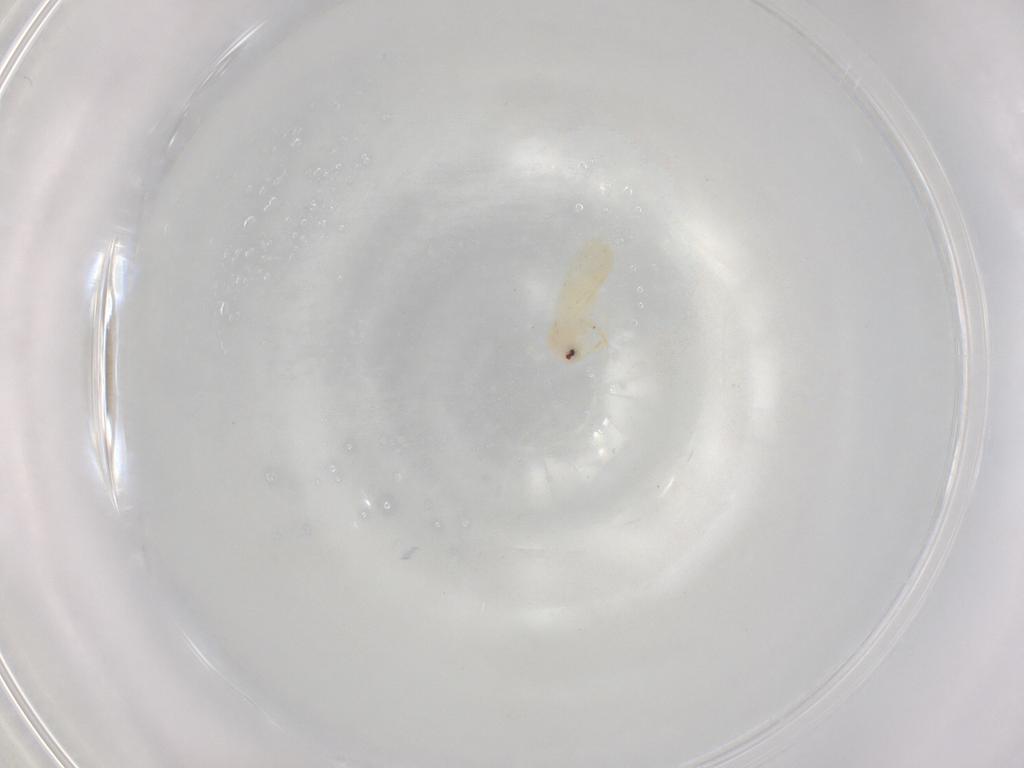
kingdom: Animalia
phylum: Arthropoda
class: Insecta
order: Hemiptera
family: Aleyrodidae
